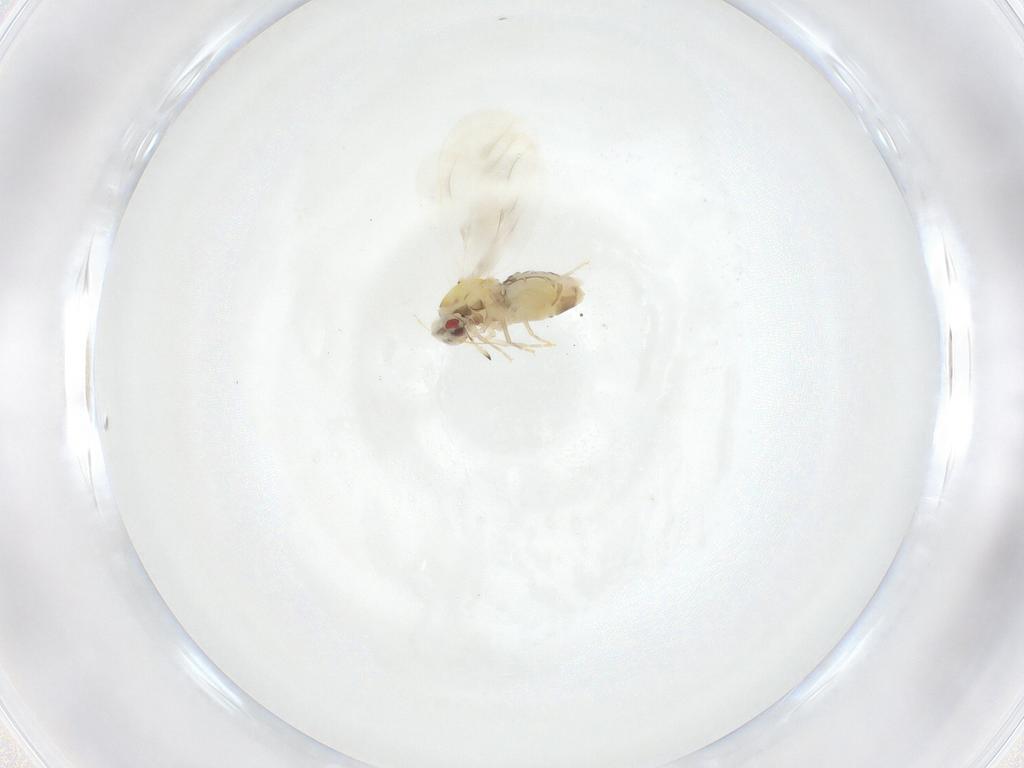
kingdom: Animalia
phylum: Arthropoda
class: Insecta
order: Hemiptera
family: Aleyrodidae
